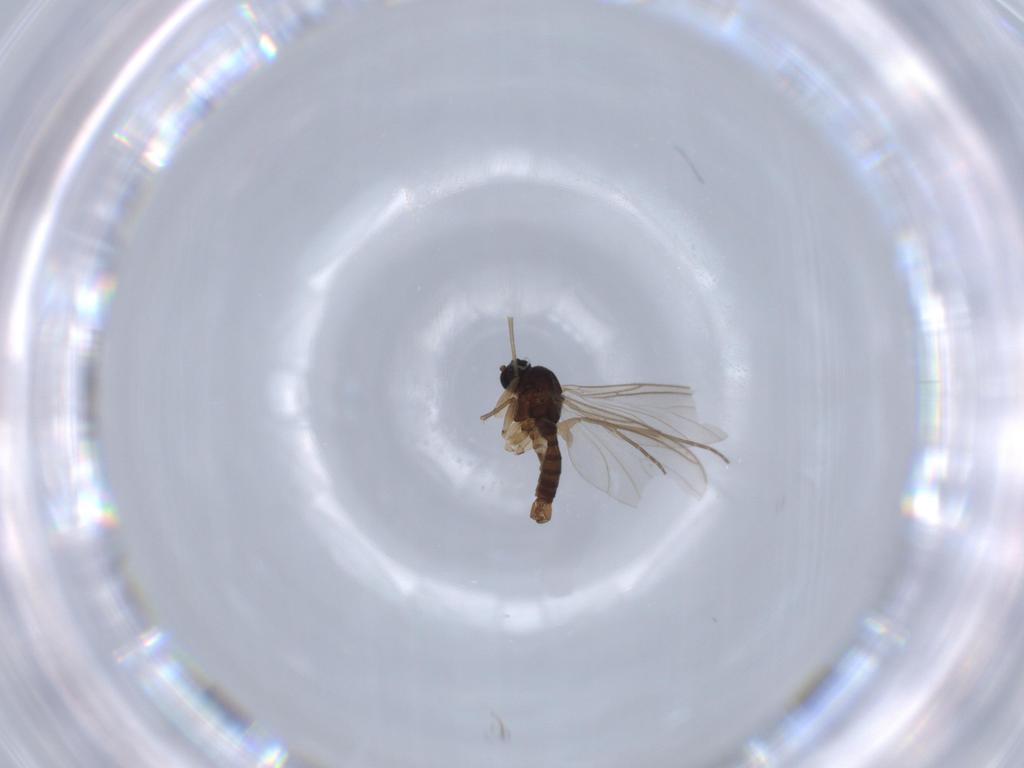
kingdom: Animalia
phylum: Arthropoda
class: Insecta
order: Diptera
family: Sciaridae
